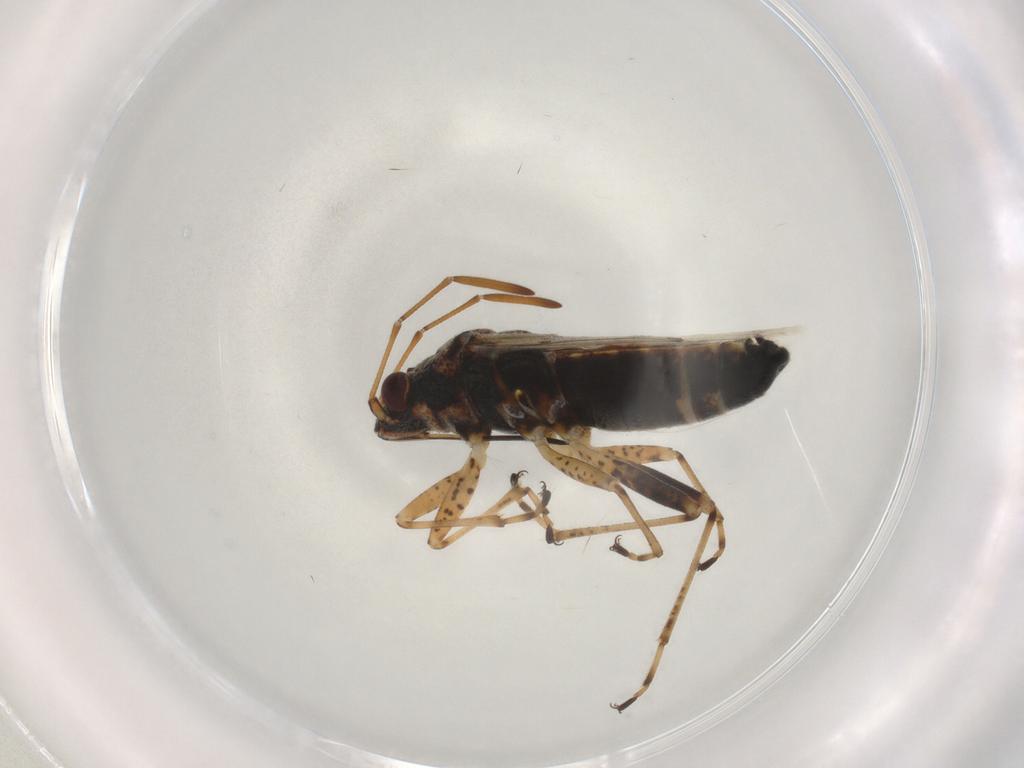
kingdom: Animalia
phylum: Arthropoda
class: Insecta
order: Hemiptera
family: Lygaeidae
